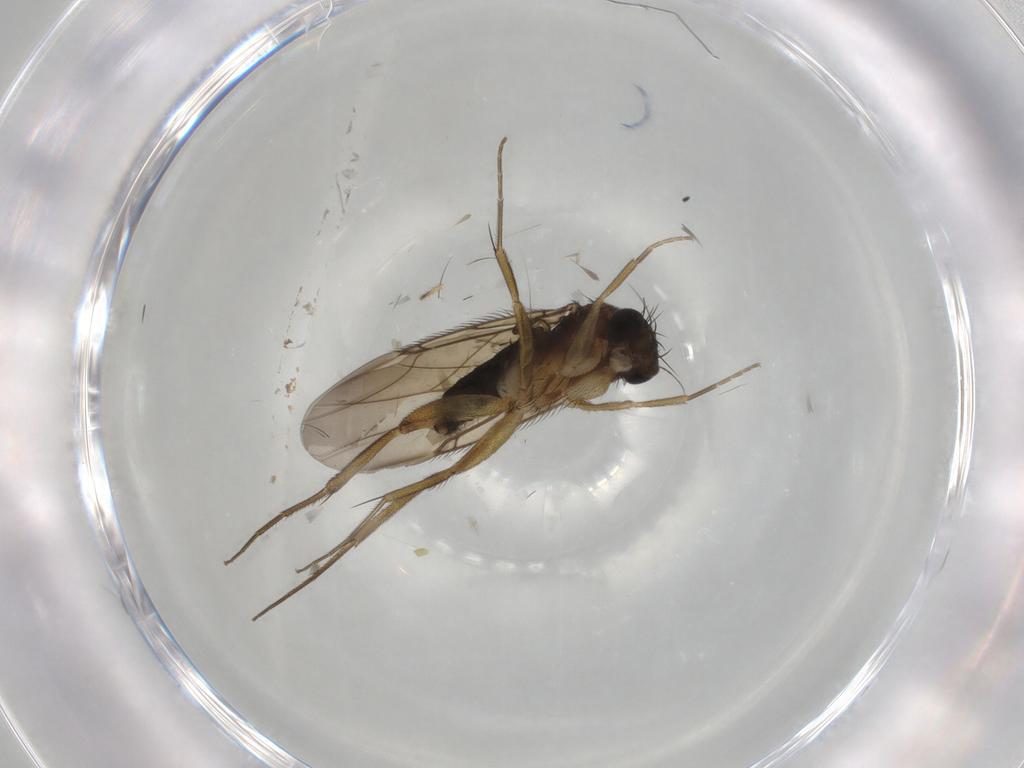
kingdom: Animalia
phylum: Arthropoda
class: Insecta
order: Diptera
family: Phoridae
